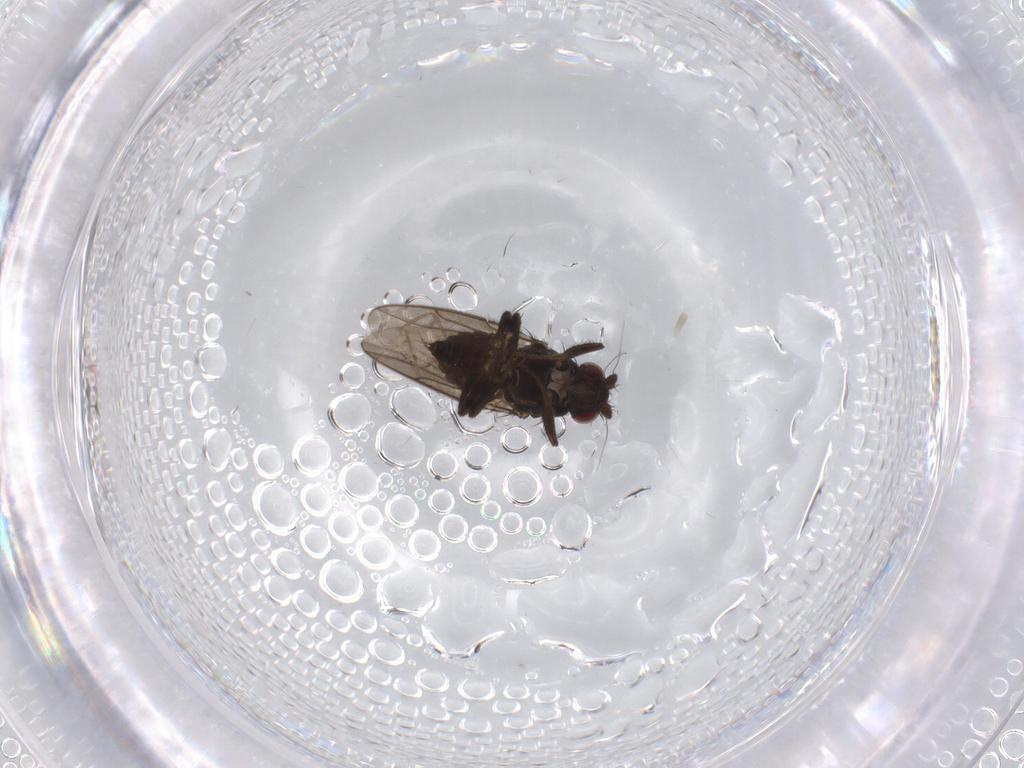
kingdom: Animalia
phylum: Arthropoda
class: Insecta
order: Diptera
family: Sphaeroceridae
